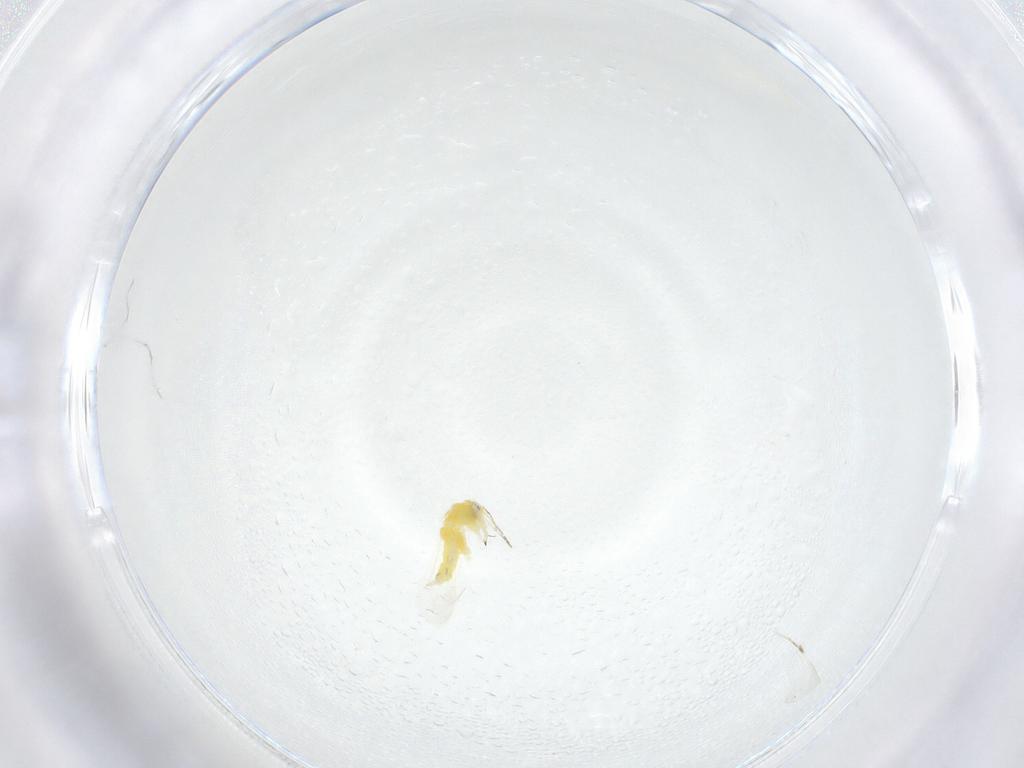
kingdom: Animalia
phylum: Arthropoda
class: Insecta
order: Hemiptera
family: Aleyrodidae
